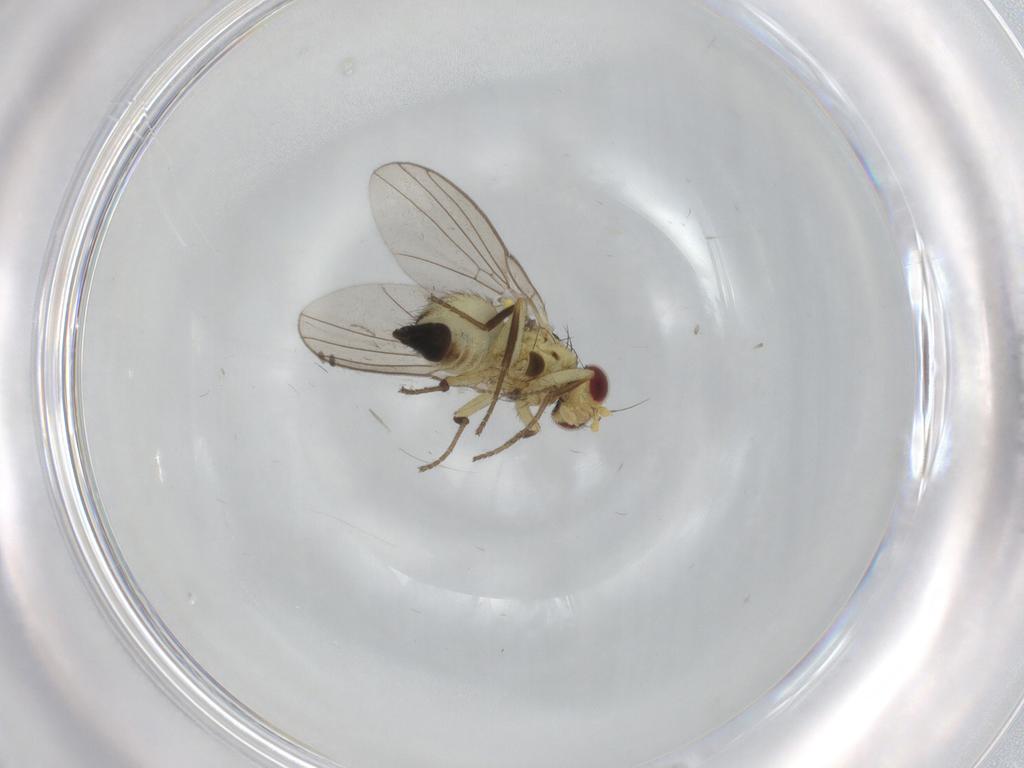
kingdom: Animalia
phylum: Arthropoda
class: Insecta
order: Diptera
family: Agromyzidae
